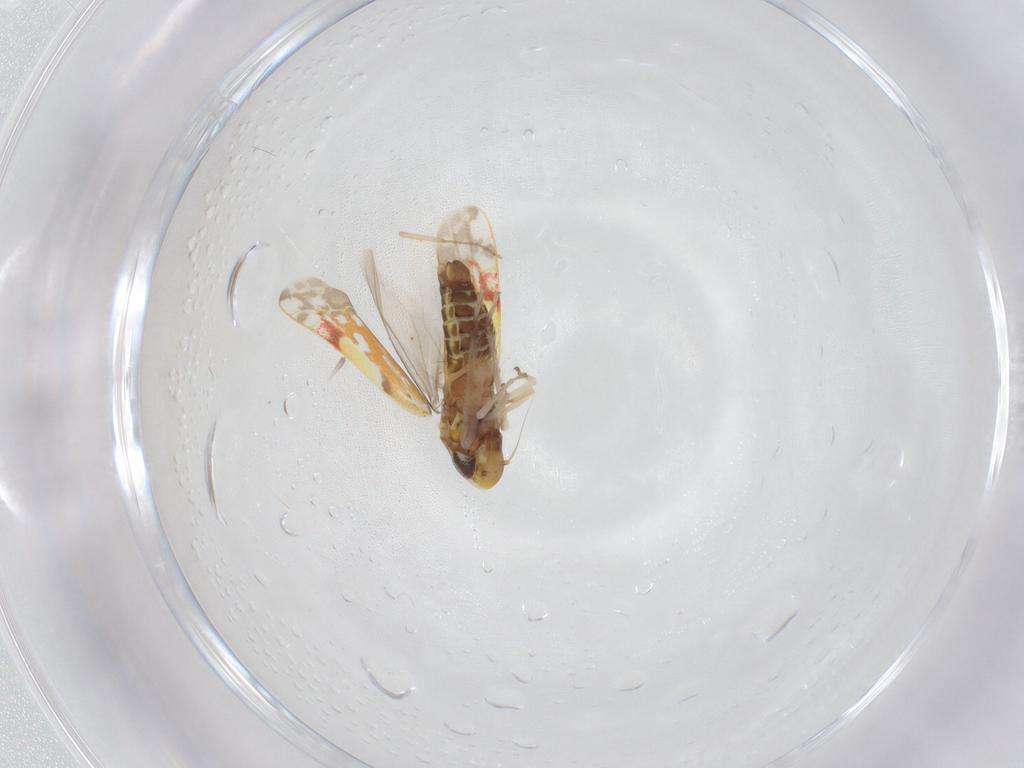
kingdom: Animalia
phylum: Arthropoda
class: Insecta
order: Hemiptera
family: Cicadellidae
